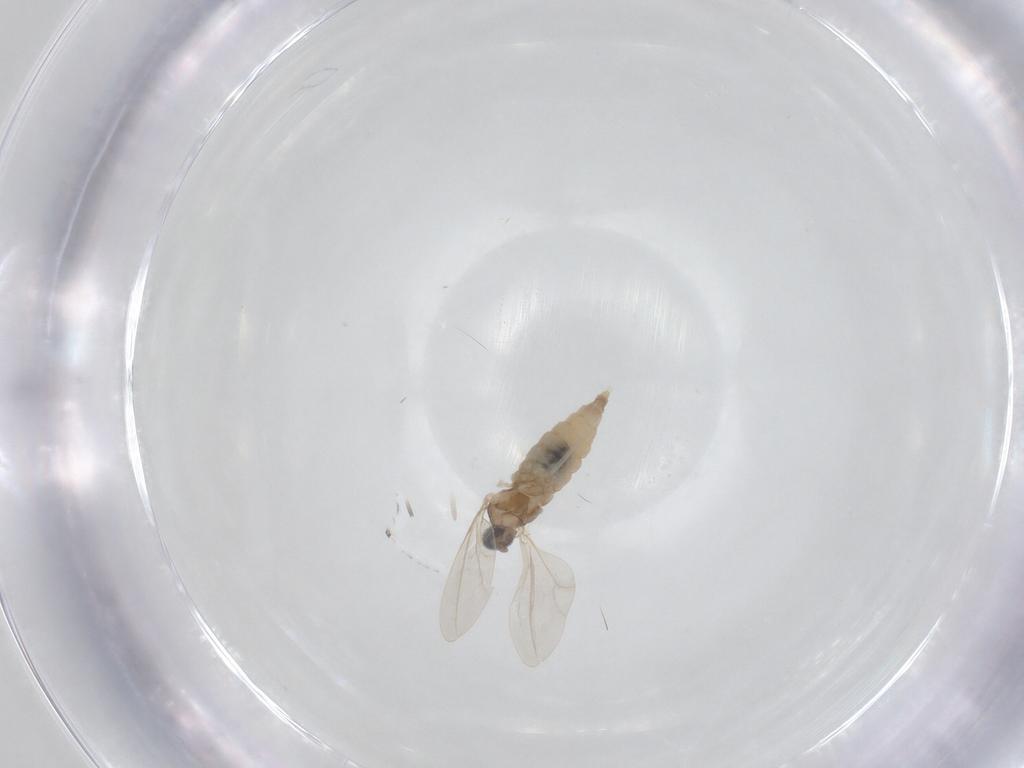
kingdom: Animalia
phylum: Arthropoda
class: Insecta
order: Diptera
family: Cecidomyiidae
